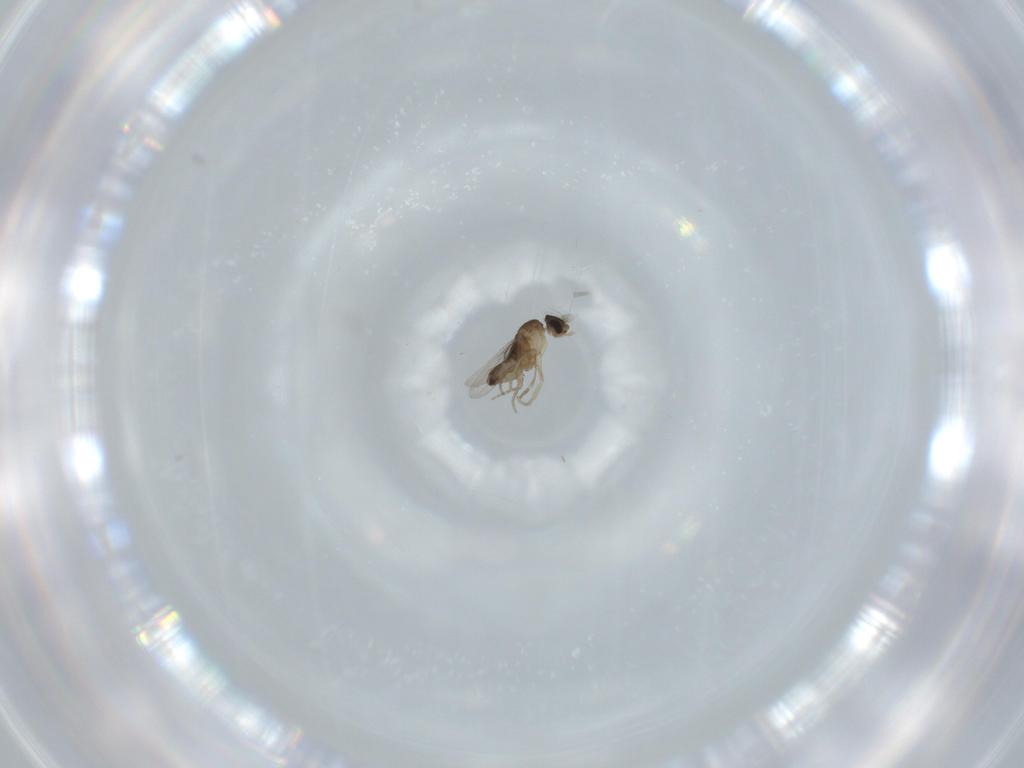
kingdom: Animalia
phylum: Arthropoda
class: Insecta
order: Diptera
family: Phoridae
